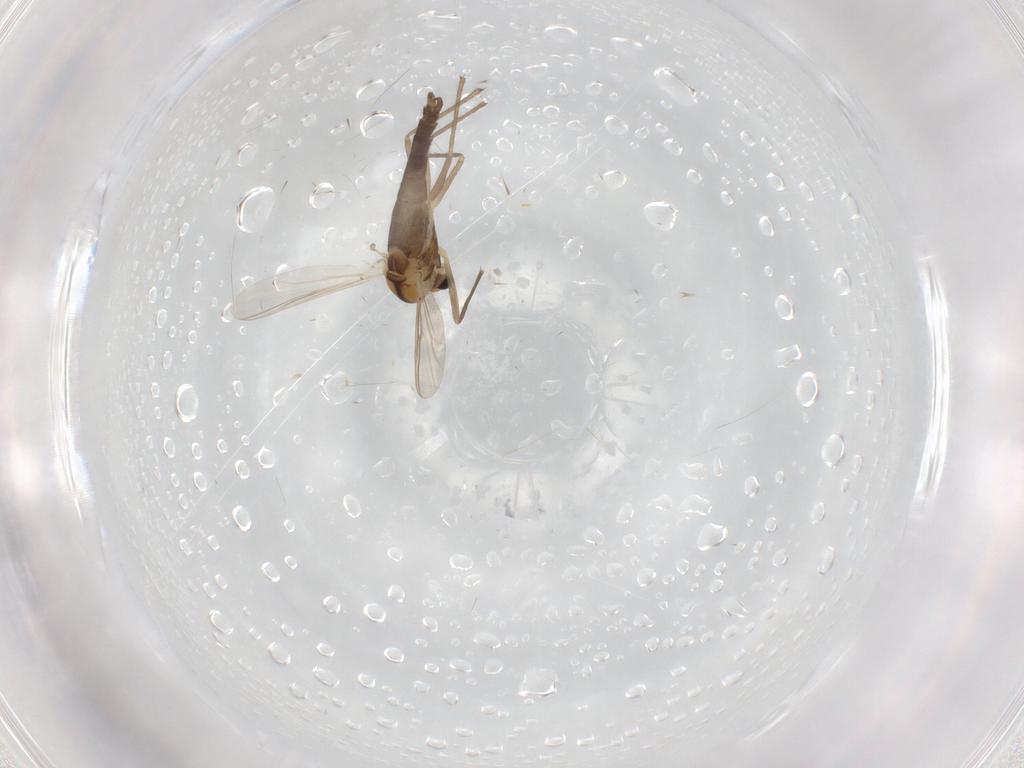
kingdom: Animalia
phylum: Arthropoda
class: Insecta
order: Diptera
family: Chironomidae
